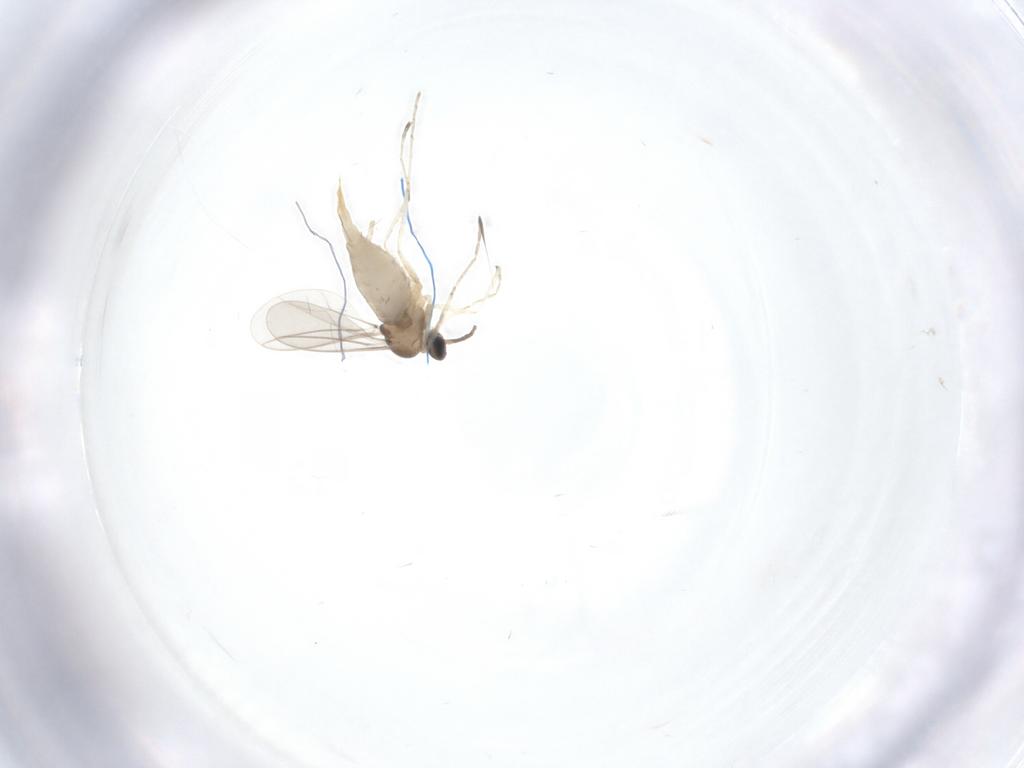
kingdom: Animalia
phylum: Arthropoda
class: Insecta
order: Diptera
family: Cecidomyiidae
